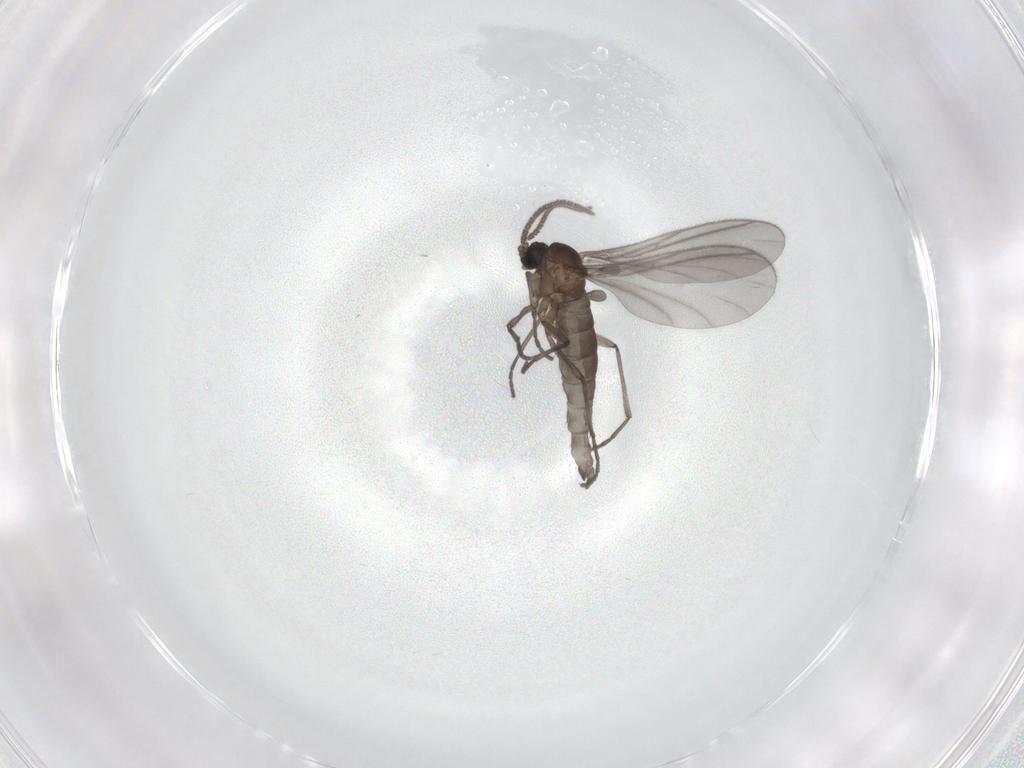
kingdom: Animalia
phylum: Arthropoda
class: Insecta
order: Diptera
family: Sciaridae
